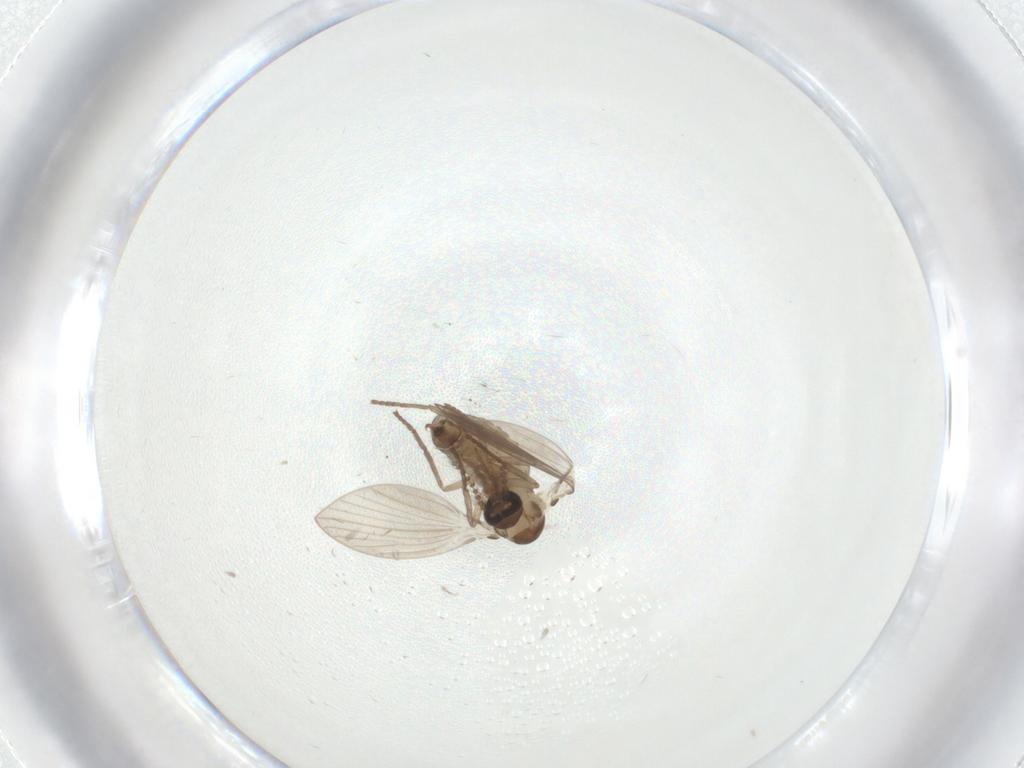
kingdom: Animalia
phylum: Arthropoda
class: Insecta
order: Diptera
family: Psychodidae
